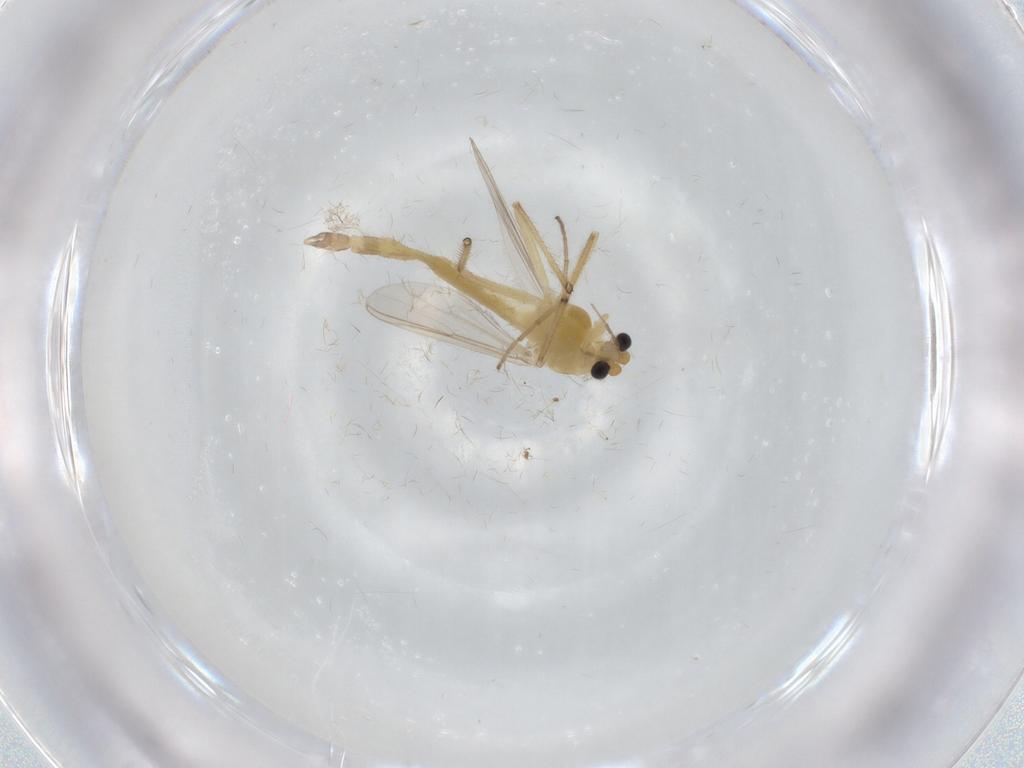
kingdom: Animalia
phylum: Arthropoda
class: Insecta
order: Diptera
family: Chironomidae
